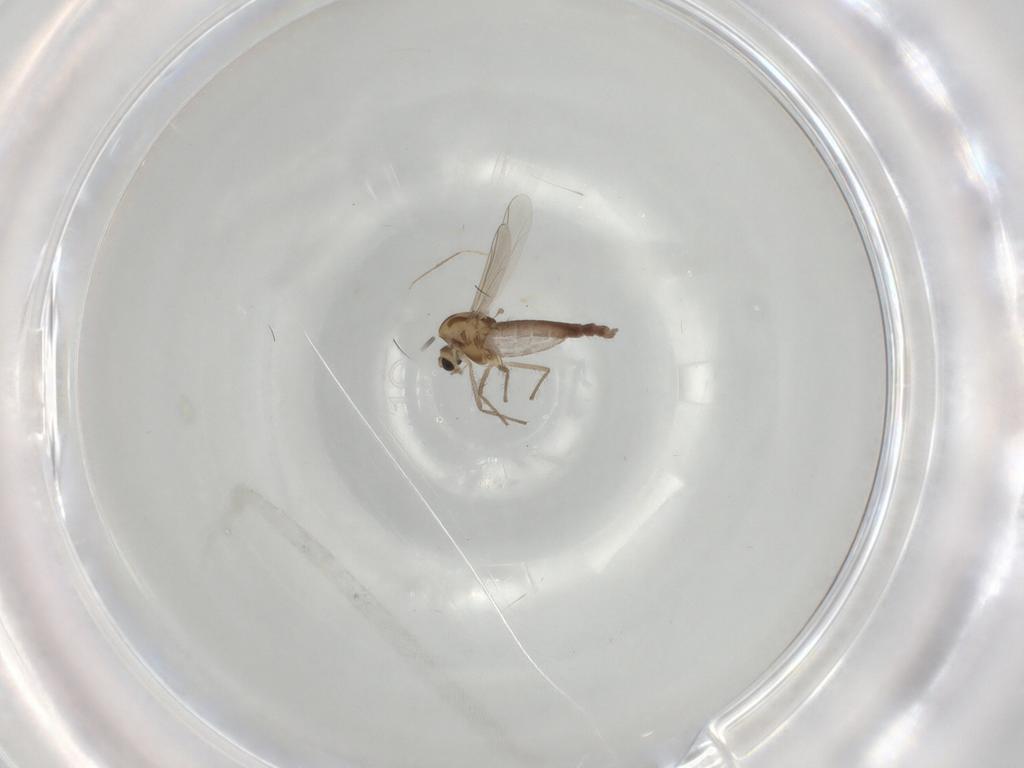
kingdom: Animalia
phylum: Arthropoda
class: Insecta
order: Diptera
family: Chironomidae
